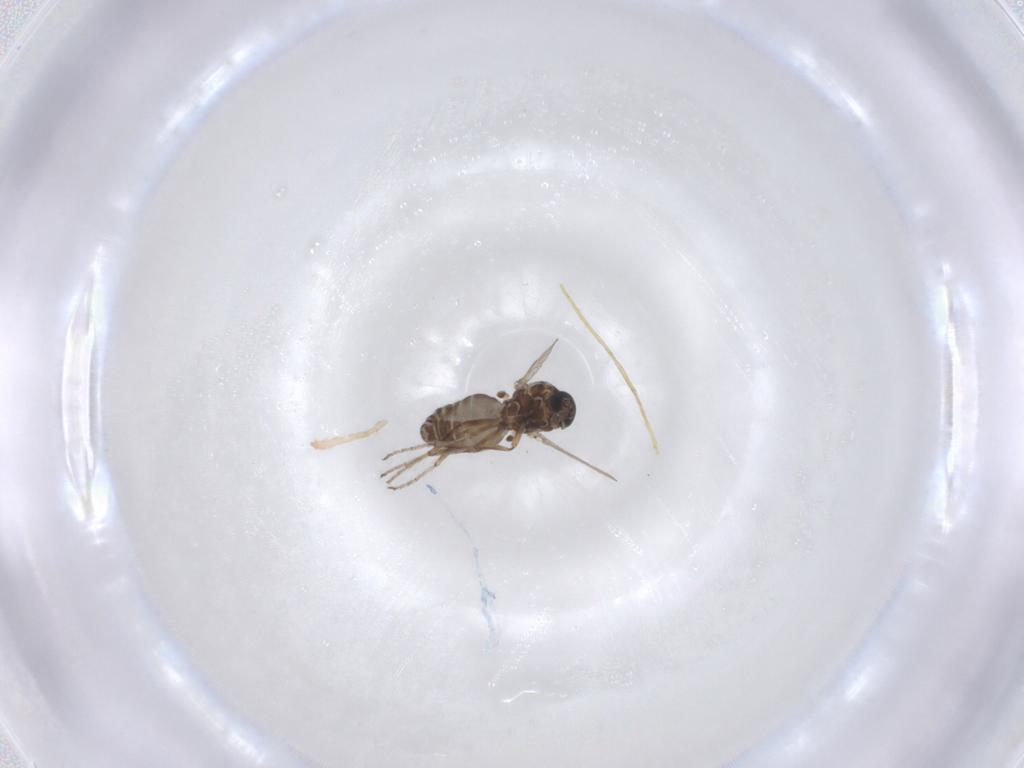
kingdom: Animalia
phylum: Arthropoda
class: Insecta
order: Diptera
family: Ceratopogonidae
